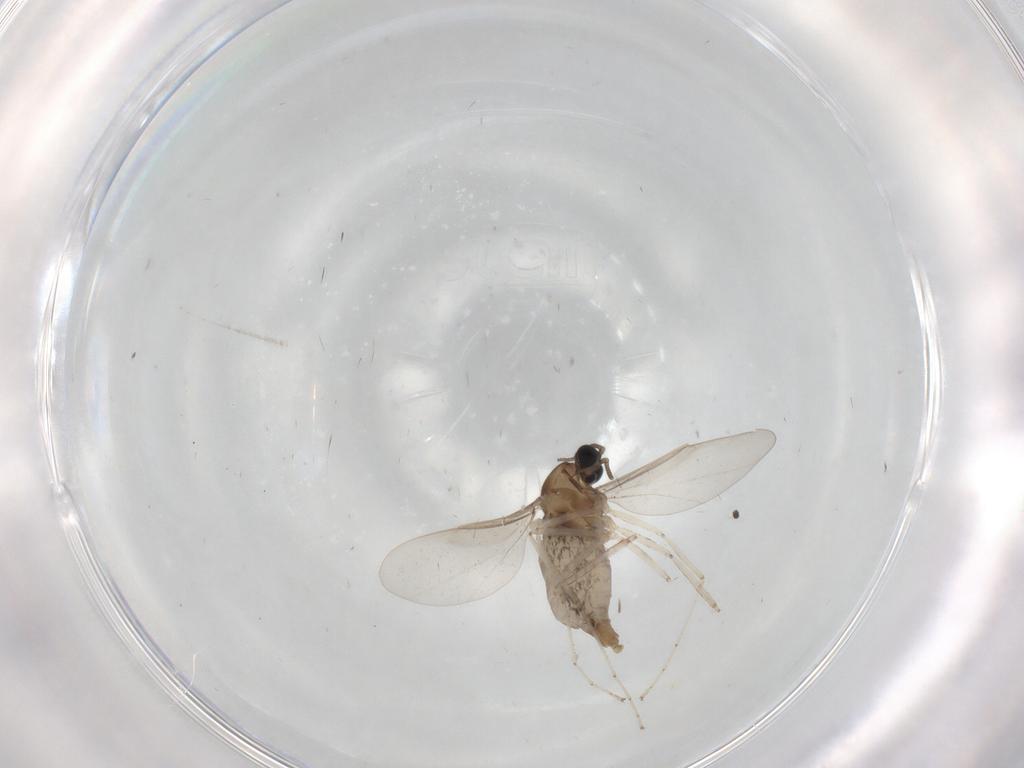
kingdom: Animalia
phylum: Arthropoda
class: Insecta
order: Diptera
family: Cecidomyiidae
